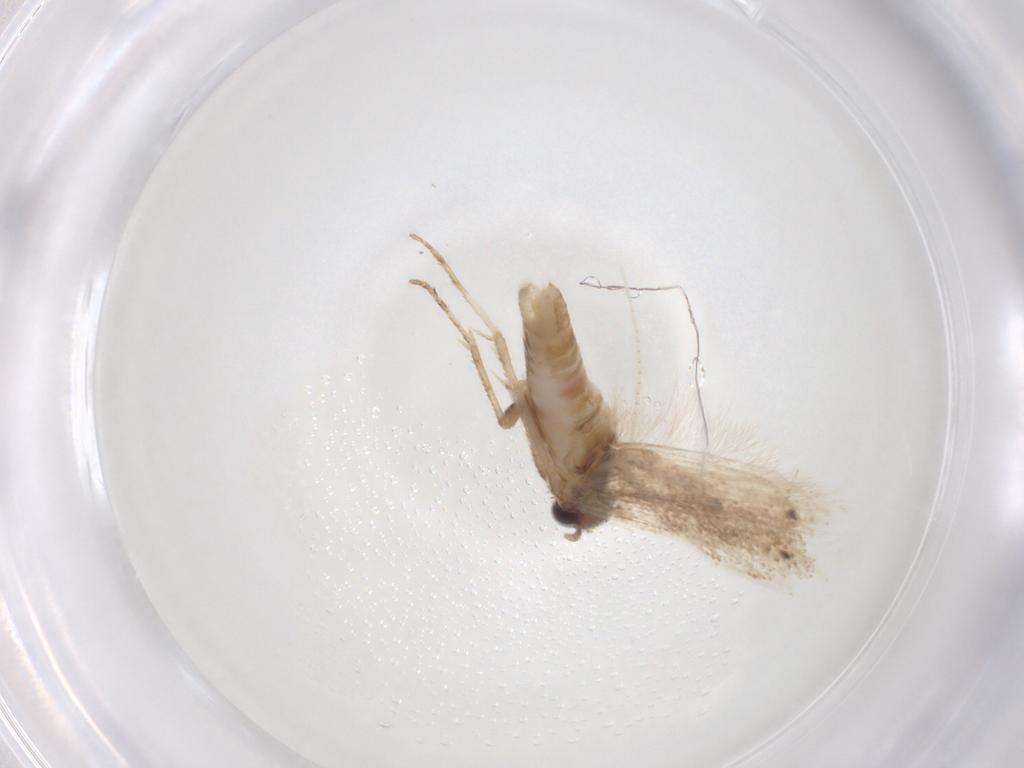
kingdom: Animalia
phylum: Arthropoda
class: Insecta
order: Lepidoptera
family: Gelechiidae
